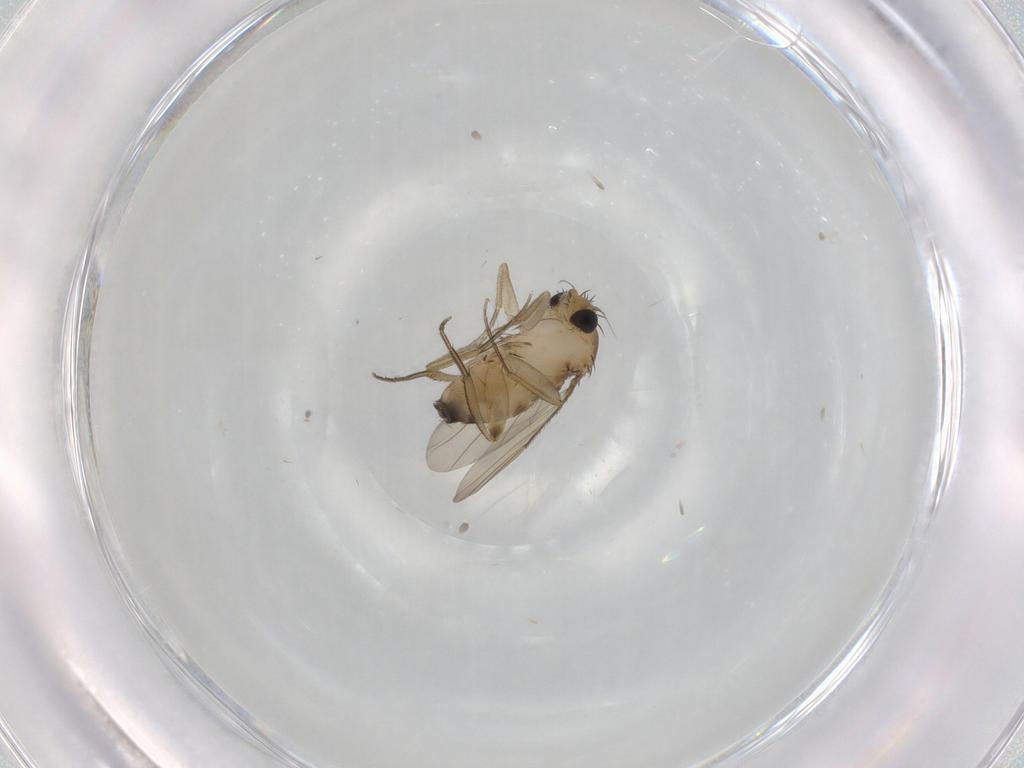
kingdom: Animalia
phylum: Arthropoda
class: Insecta
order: Diptera
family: Phoridae
